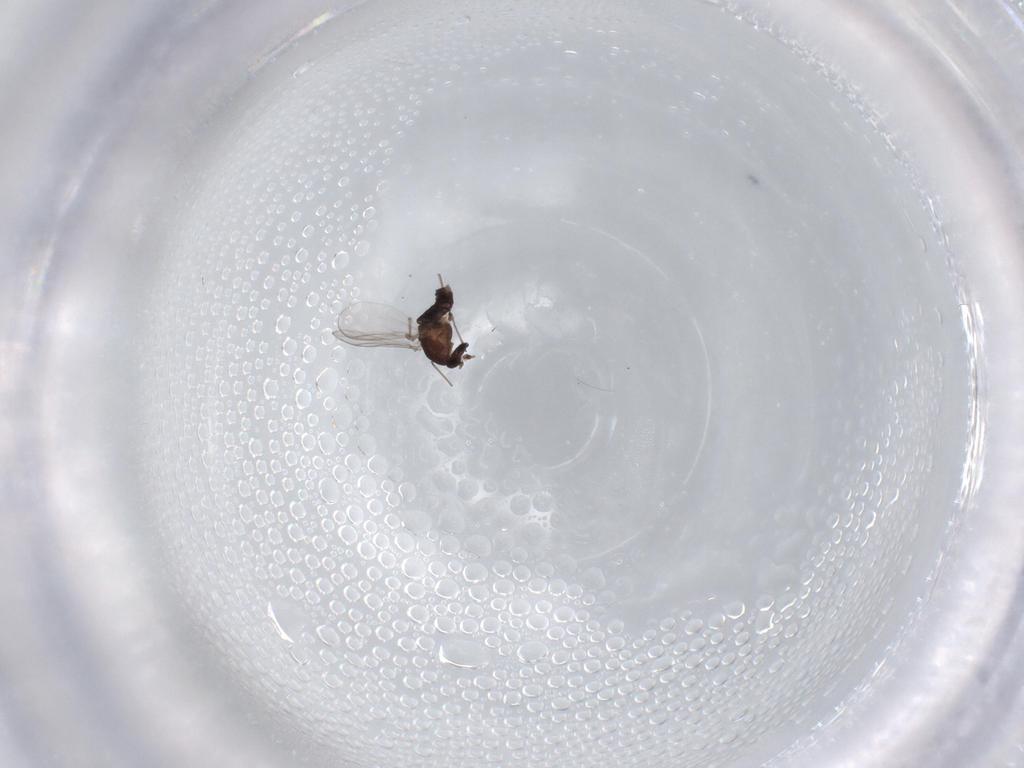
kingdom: Animalia
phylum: Arthropoda
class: Insecta
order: Diptera
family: Chironomidae
